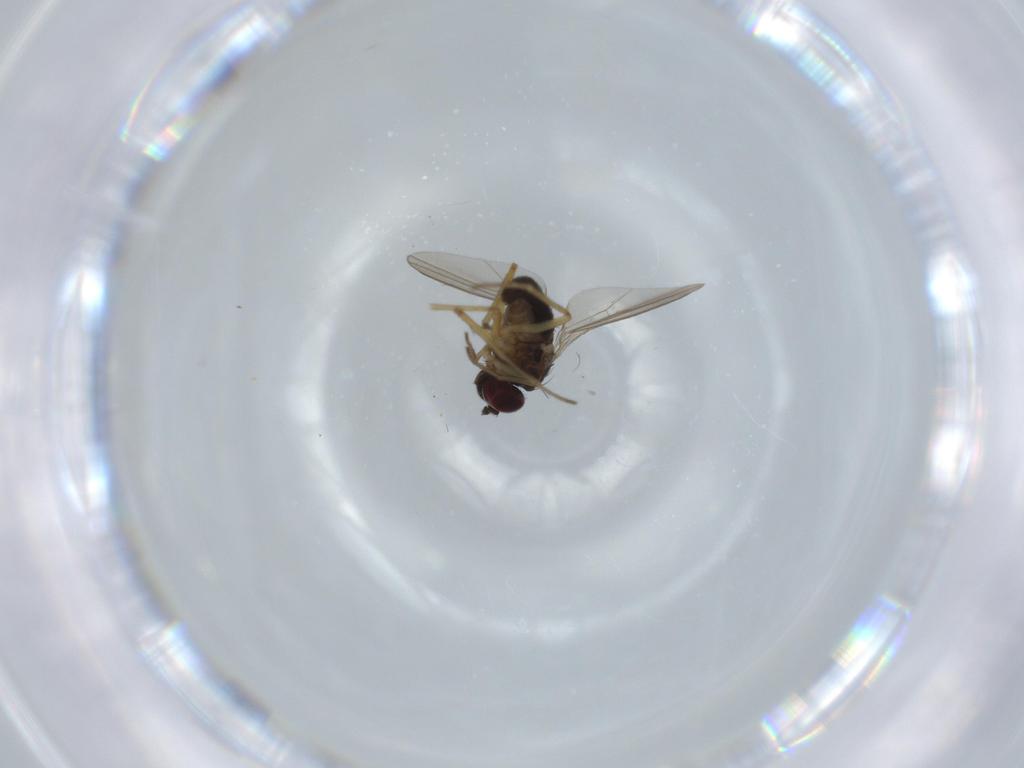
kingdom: Animalia
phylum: Arthropoda
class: Insecta
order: Diptera
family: Dolichopodidae
